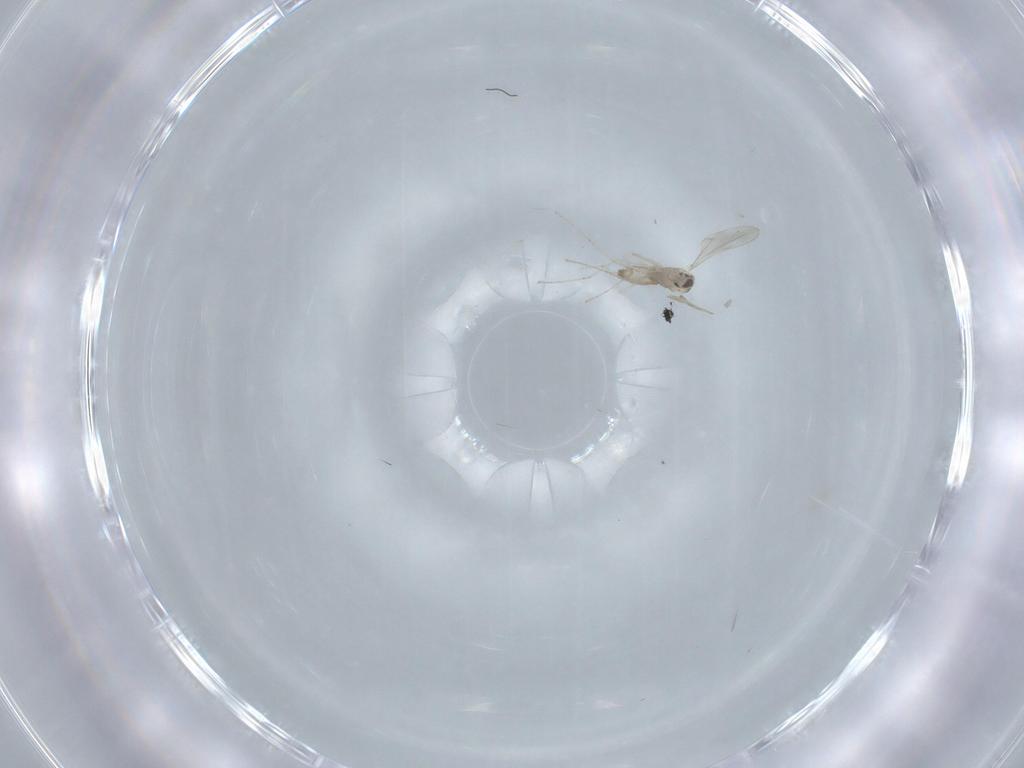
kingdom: Animalia
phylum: Arthropoda
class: Insecta
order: Diptera
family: Cecidomyiidae
